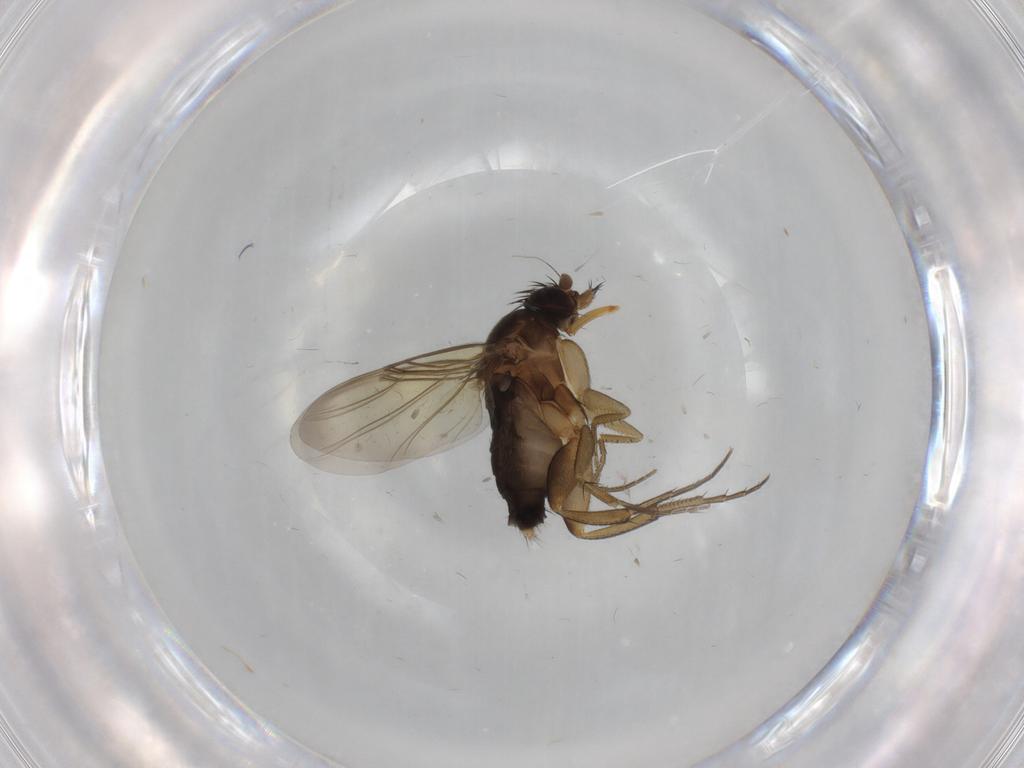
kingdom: Animalia
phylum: Arthropoda
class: Insecta
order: Diptera
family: Phoridae
